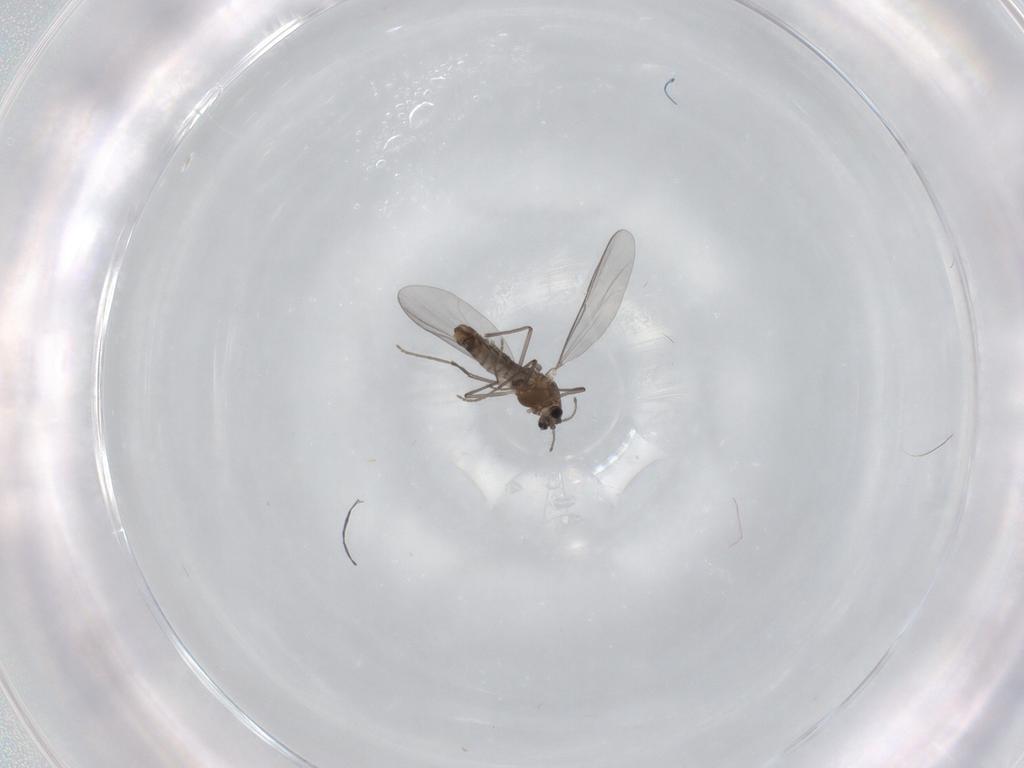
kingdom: Animalia
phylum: Arthropoda
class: Insecta
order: Diptera
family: Chironomidae
